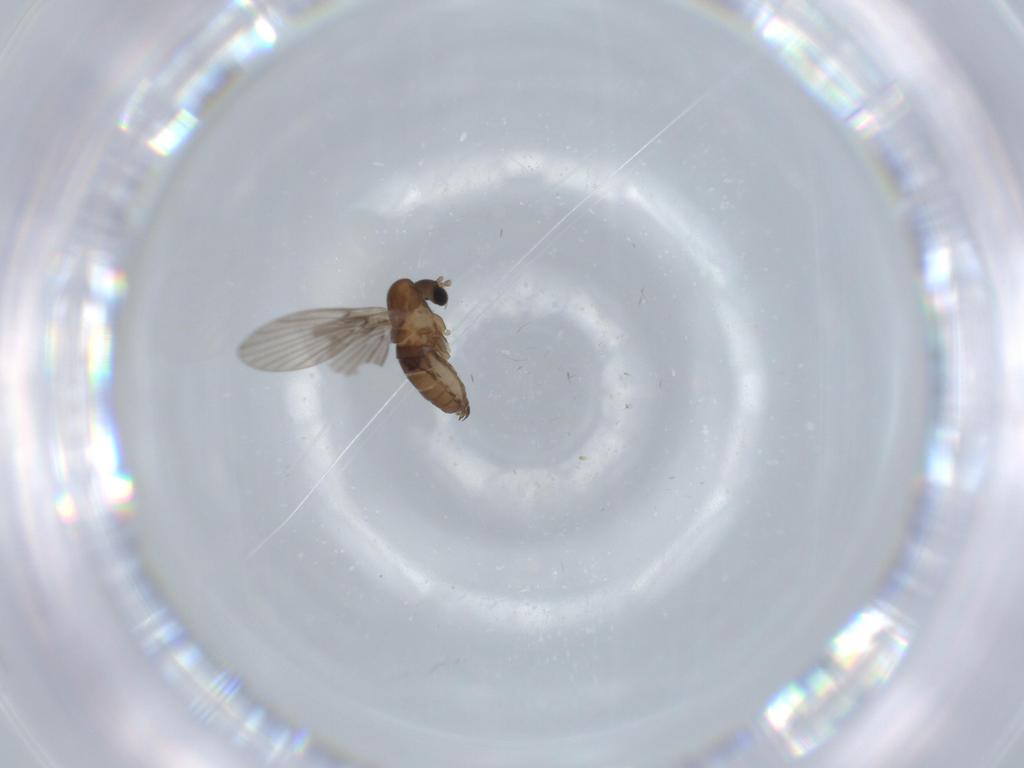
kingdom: Animalia
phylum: Arthropoda
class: Insecta
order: Diptera
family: Psychodidae
